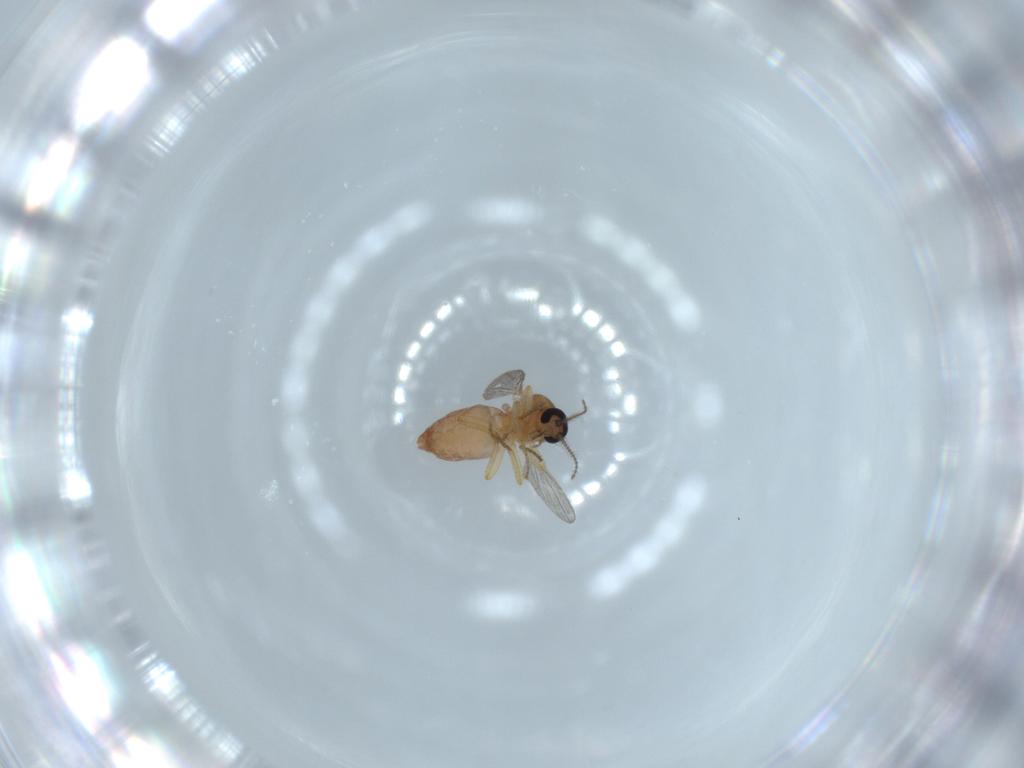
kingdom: Animalia
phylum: Arthropoda
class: Insecta
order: Diptera
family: Ceratopogonidae
